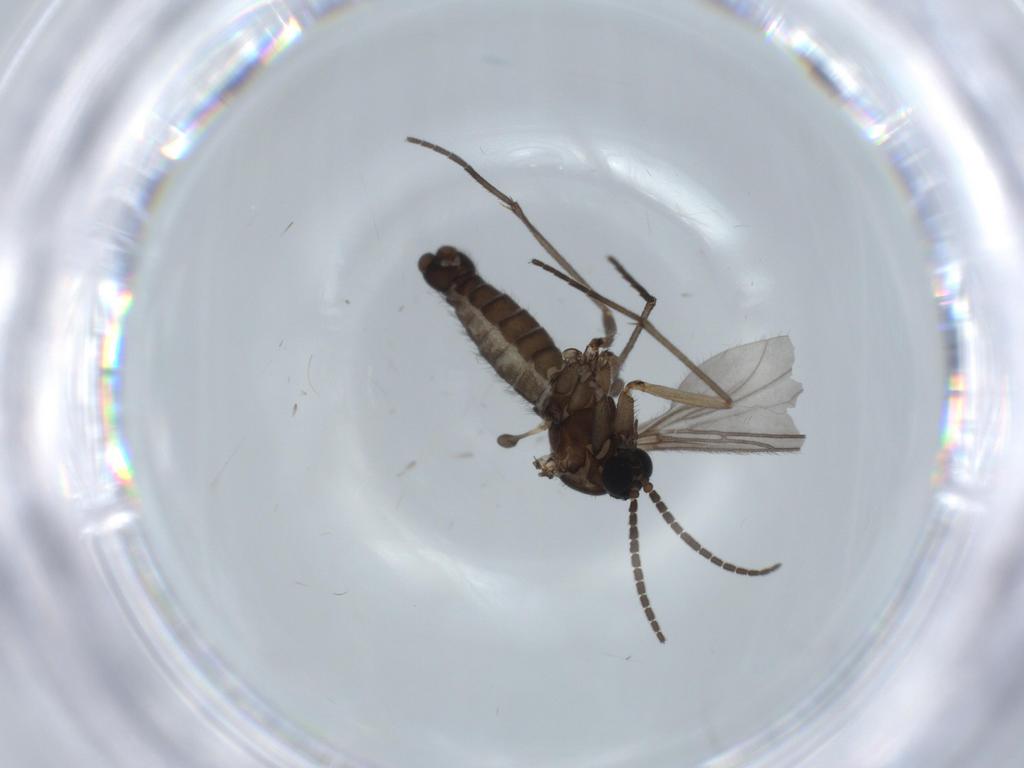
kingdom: Animalia
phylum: Arthropoda
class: Insecta
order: Diptera
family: Sciaridae
